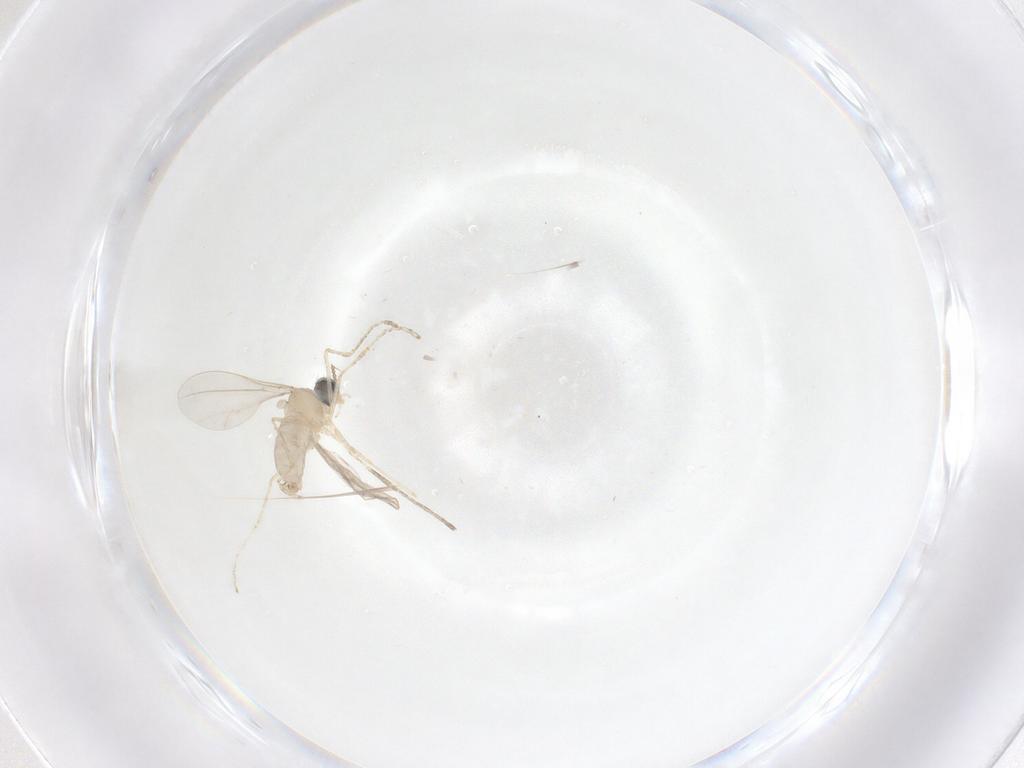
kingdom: Animalia
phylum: Arthropoda
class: Insecta
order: Diptera
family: Cecidomyiidae
